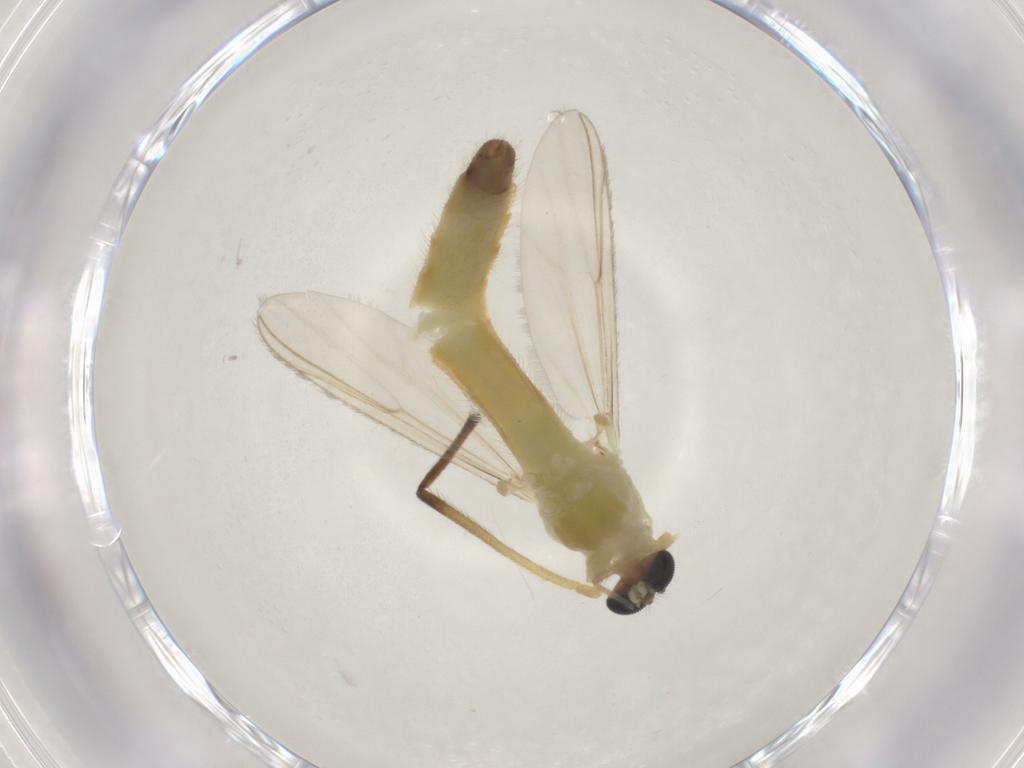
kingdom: Animalia
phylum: Arthropoda
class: Insecta
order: Diptera
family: Chironomidae
